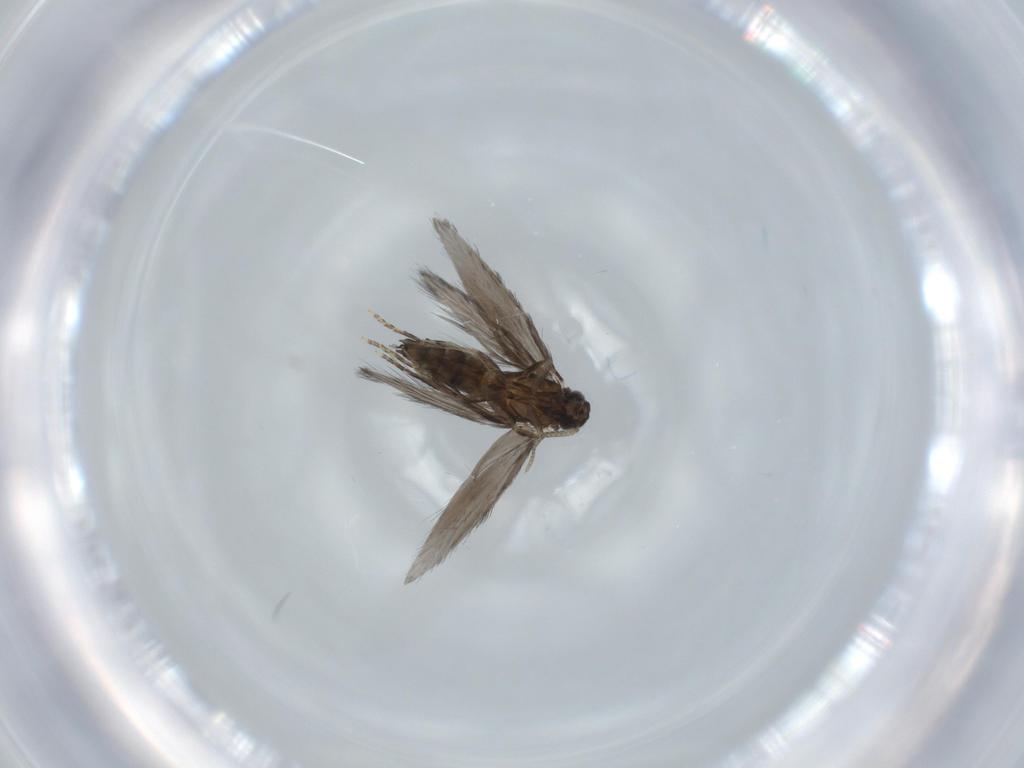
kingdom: Animalia
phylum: Arthropoda
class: Insecta
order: Trichoptera
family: Hydroptilidae
